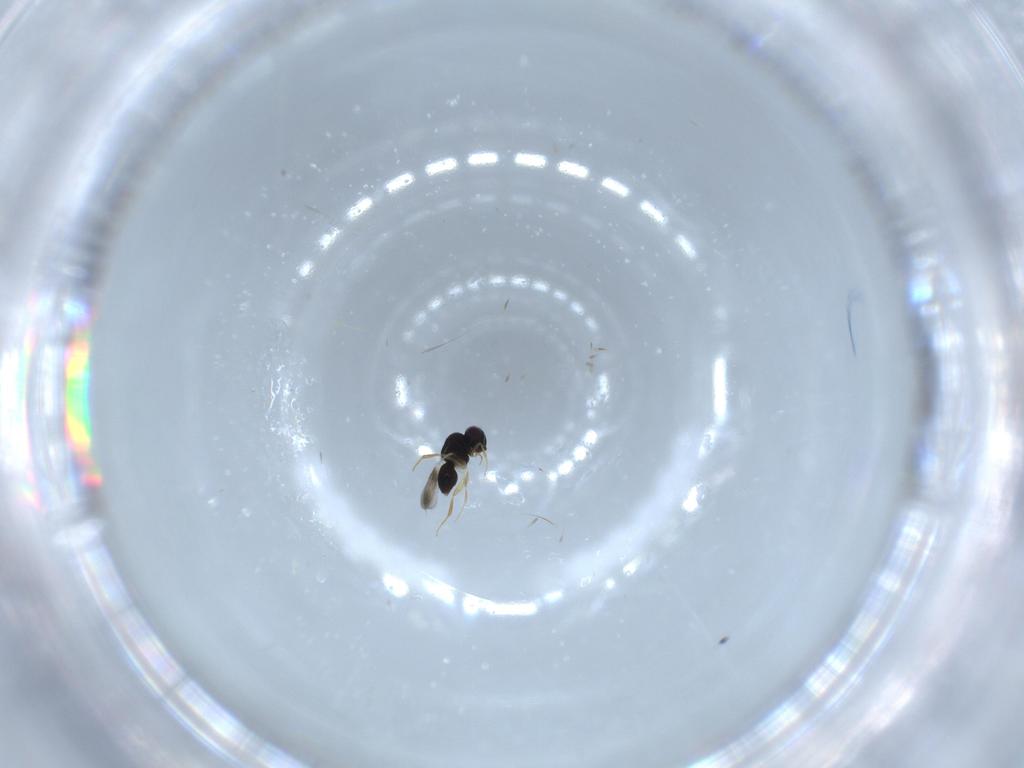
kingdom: Animalia
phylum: Arthropoda
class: Insecta
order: Hymenoptera
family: Ceraphronidae
